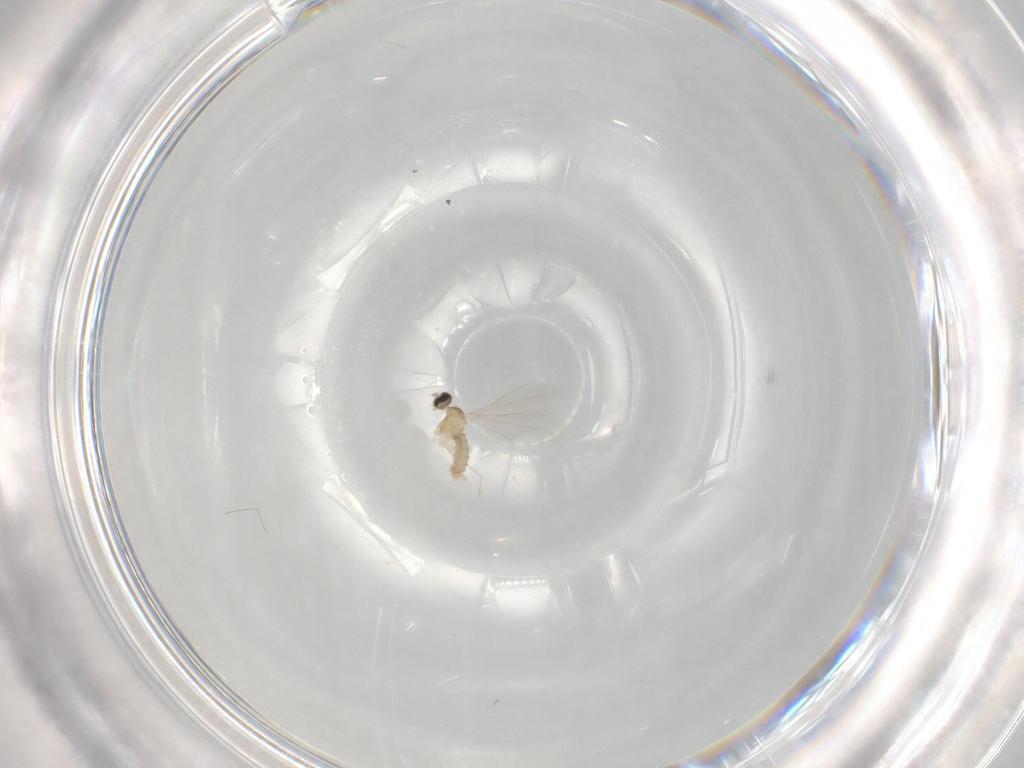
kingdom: Animalia
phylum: Arthropoda
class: Insecta
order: Diptera
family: Cecidomyiidae
